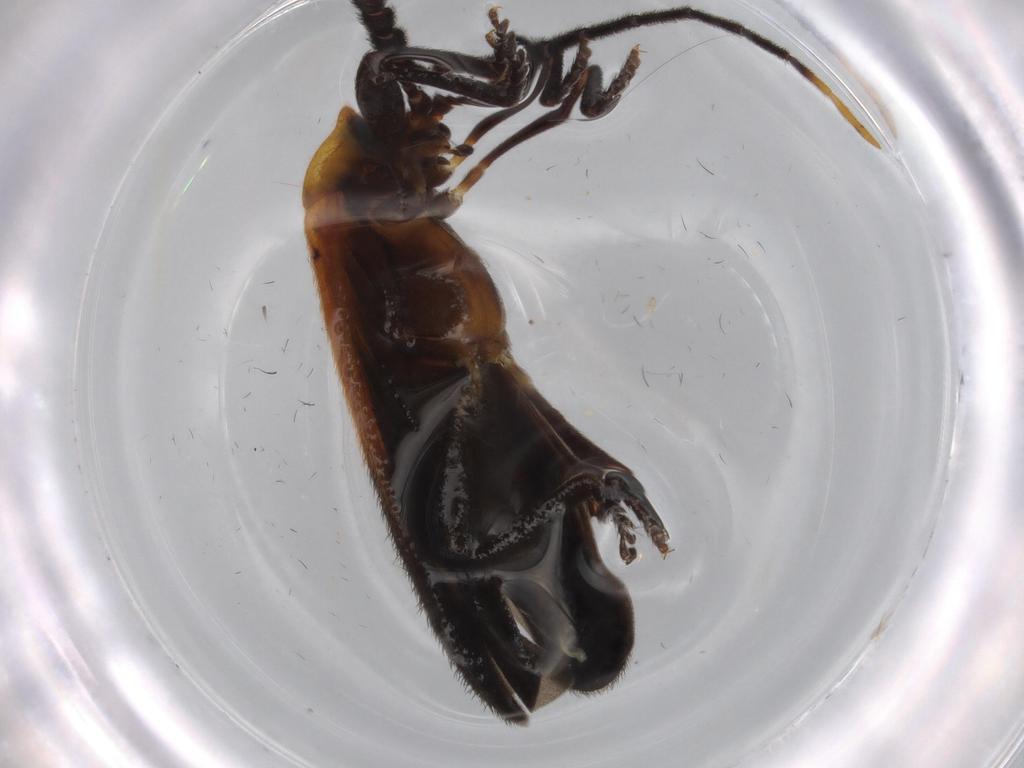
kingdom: Animalia
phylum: Arthropoda
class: Insecta
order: Coleoptera
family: Lycidae
